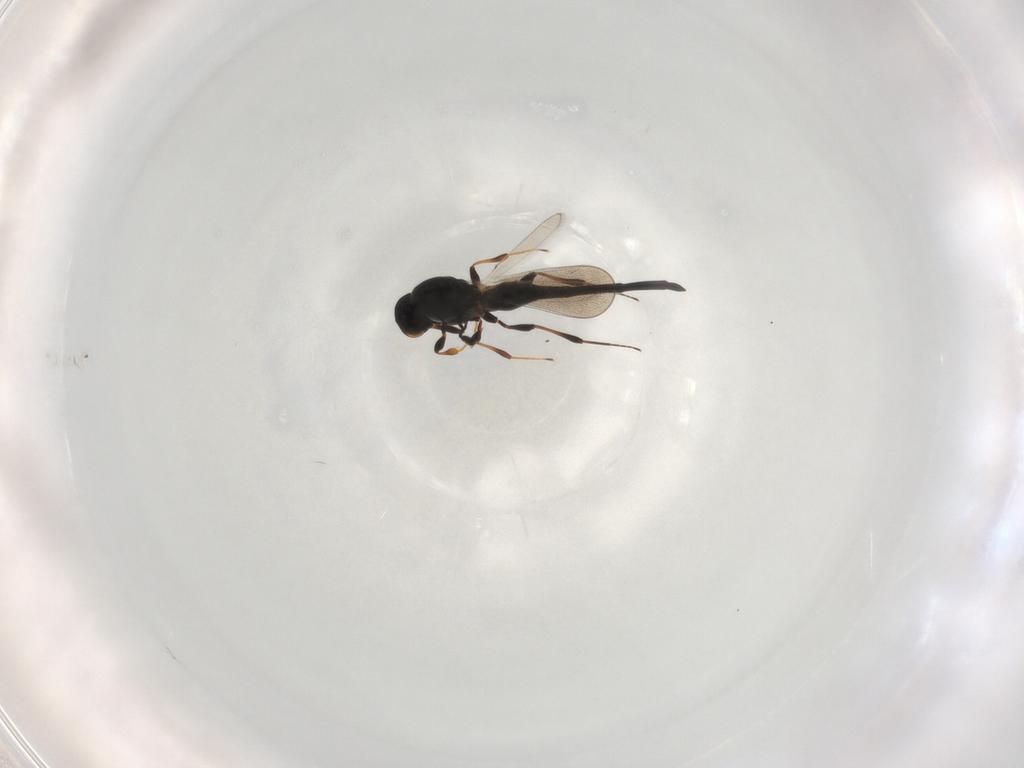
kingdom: Animalia
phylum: Arthropoda
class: Insecta
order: Hymenoptera
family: Platygastridae
